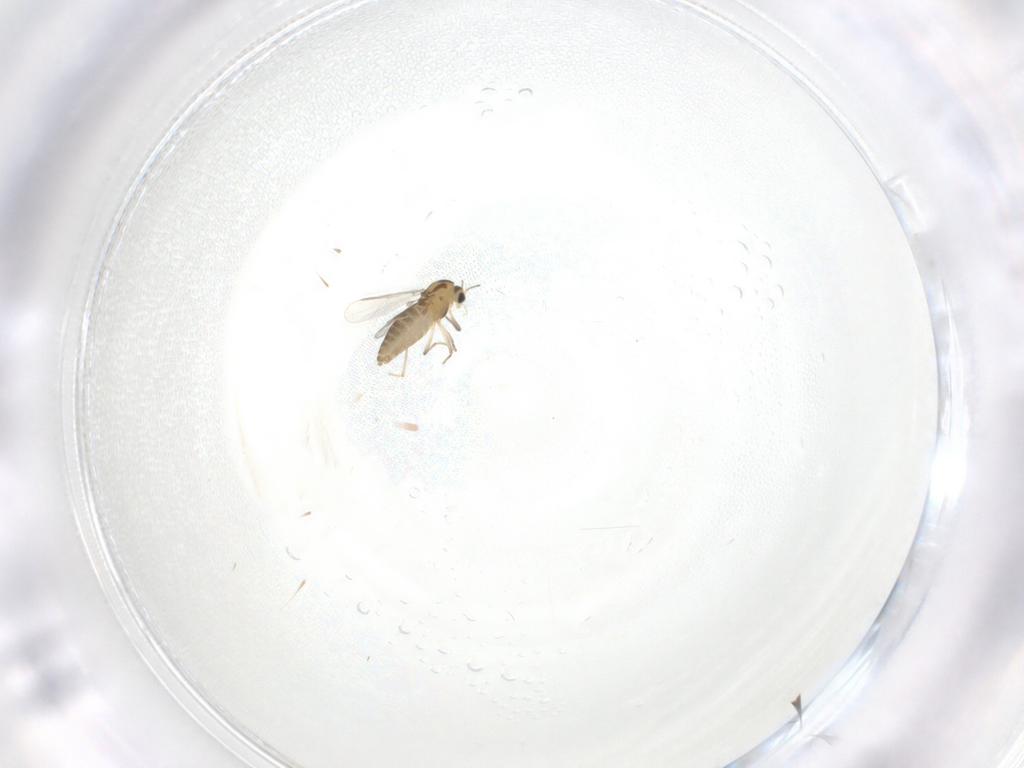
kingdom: Animalia
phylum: Arthropoda
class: Insecta
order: Diptera
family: Chironomidae
